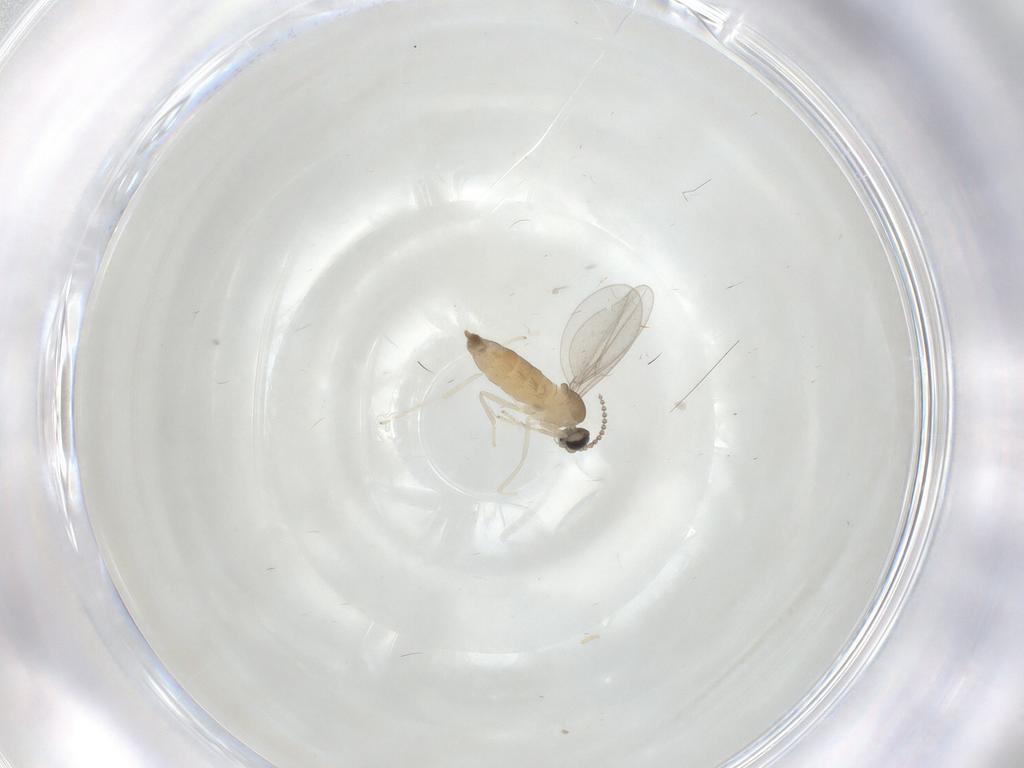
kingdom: Animalia
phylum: Arthropoda
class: Insecta
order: Diptera
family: Cecidomyiidae
